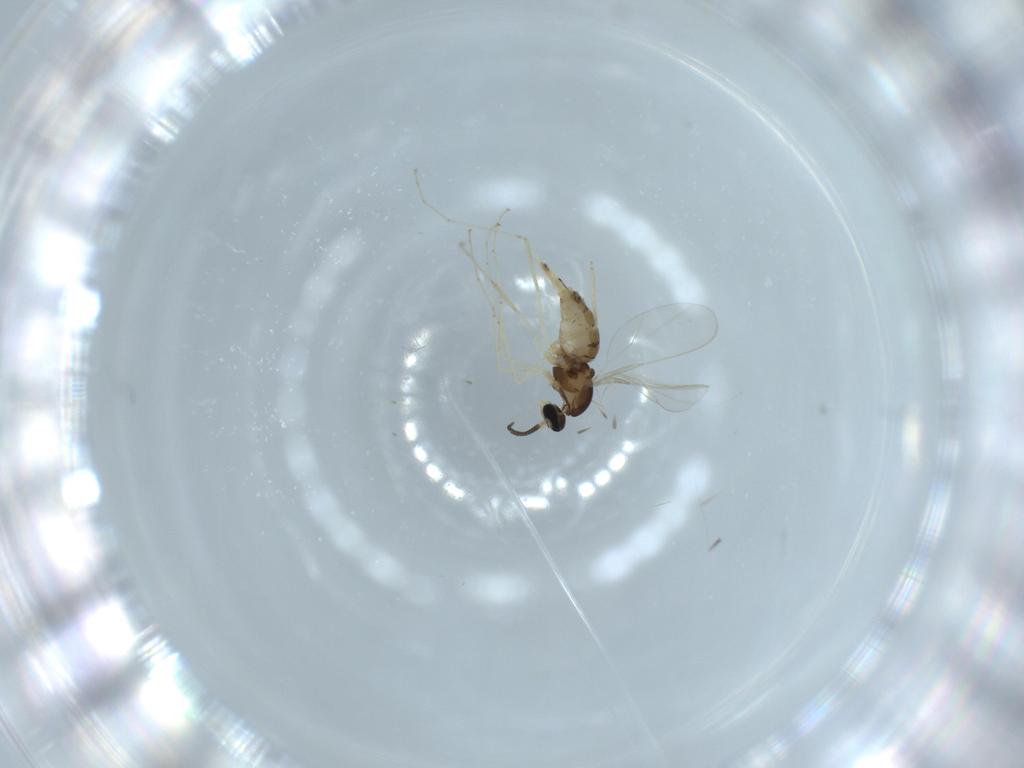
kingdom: Animalia
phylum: Arthropoda
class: Insecta
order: Diptera
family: Cecidomyiidae
